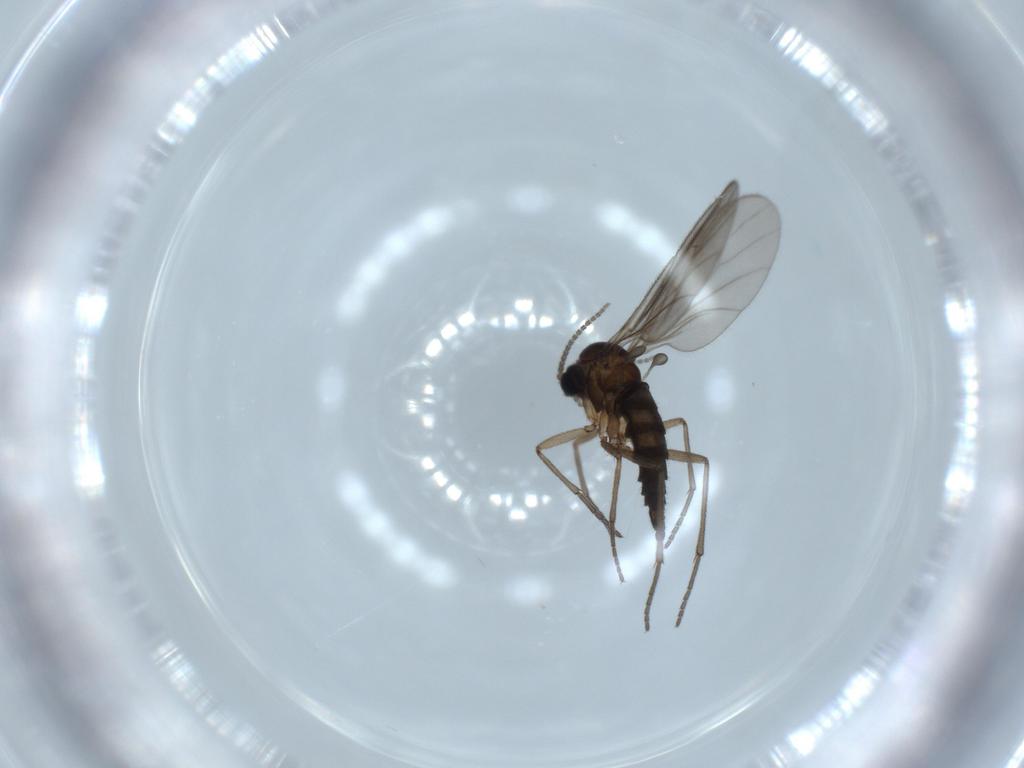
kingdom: Animalia
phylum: Arthropoda
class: Insecta
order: Diptera
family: Sciaridae
